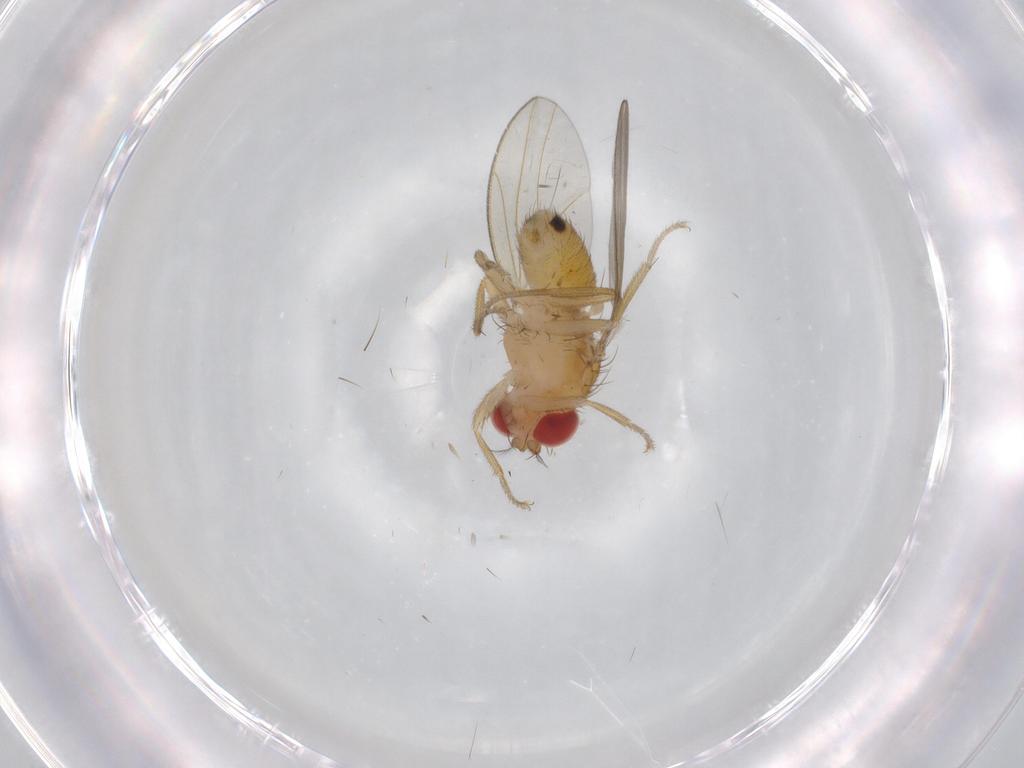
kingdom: Animalia
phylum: Arthropoda
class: Insecta
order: Diptera
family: Drosophilidae
